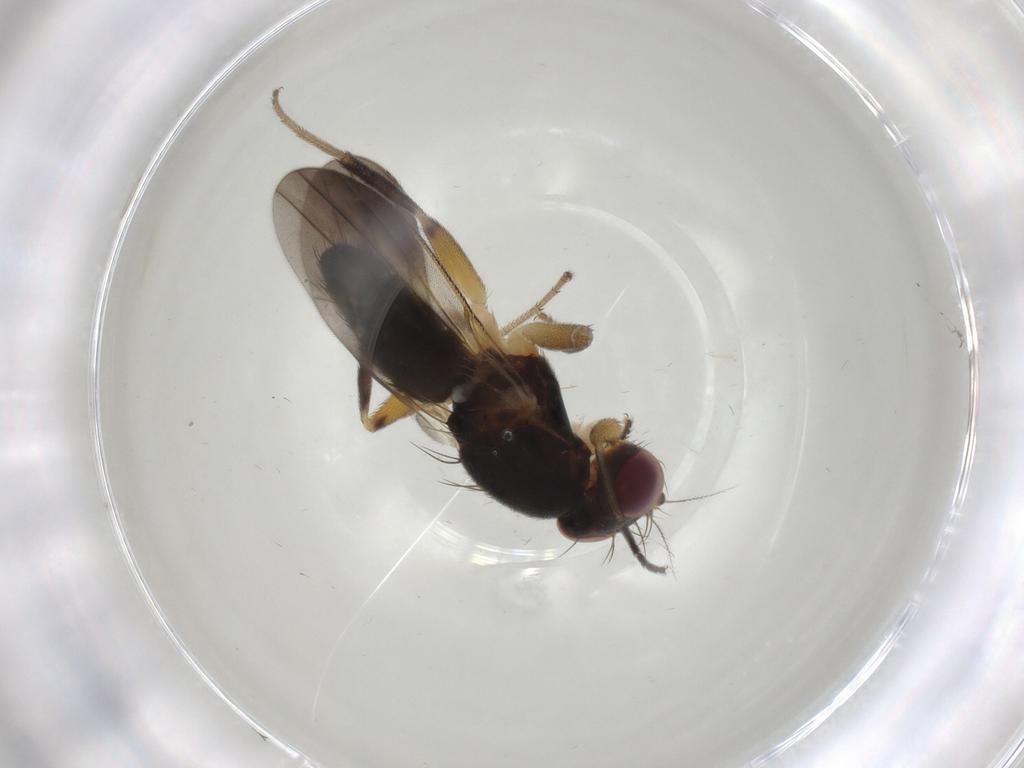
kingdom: Animalia
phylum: Arthropoda
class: Insecta
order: Diptera
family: Clusiidae
